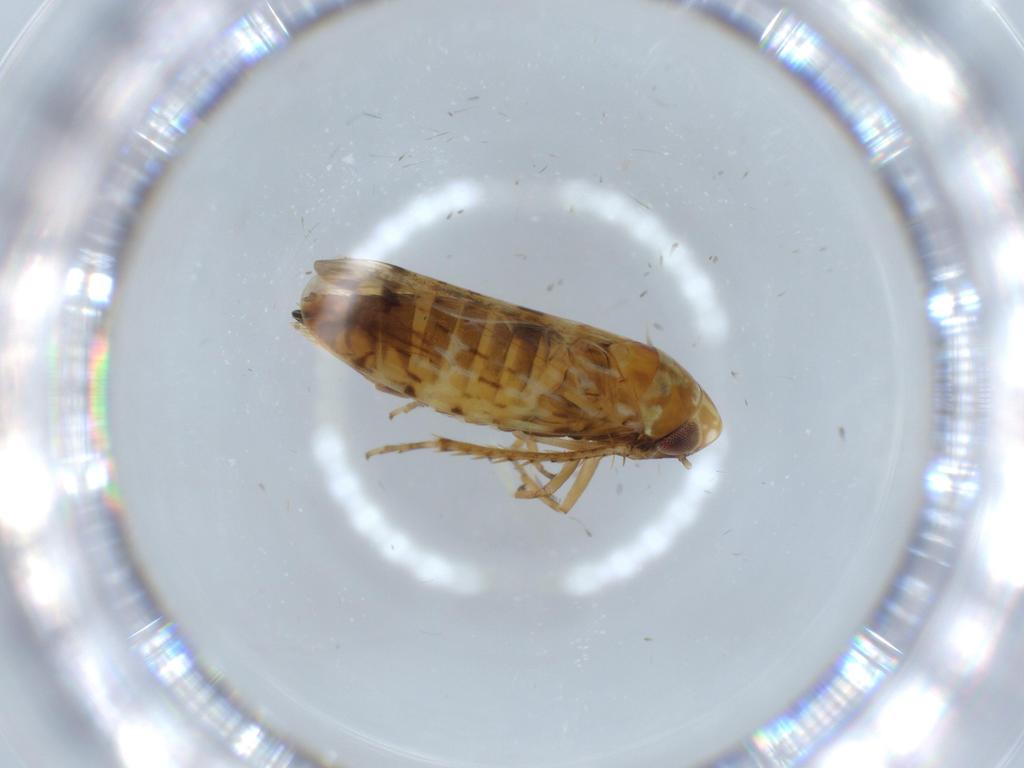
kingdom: Animalia
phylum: Arthropoda
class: Insecta
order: Hemiptera
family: Cicadellidae
